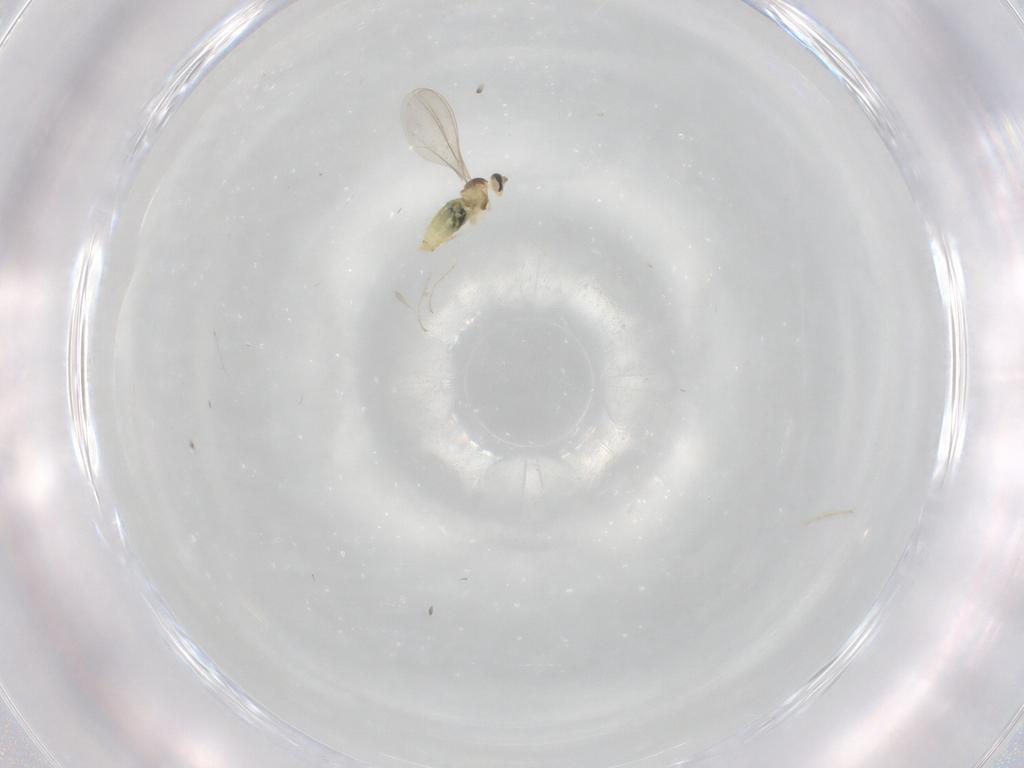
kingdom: Animalia
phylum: Arthropoda
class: Insecta
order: Diptera
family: Cecidomyiidae
